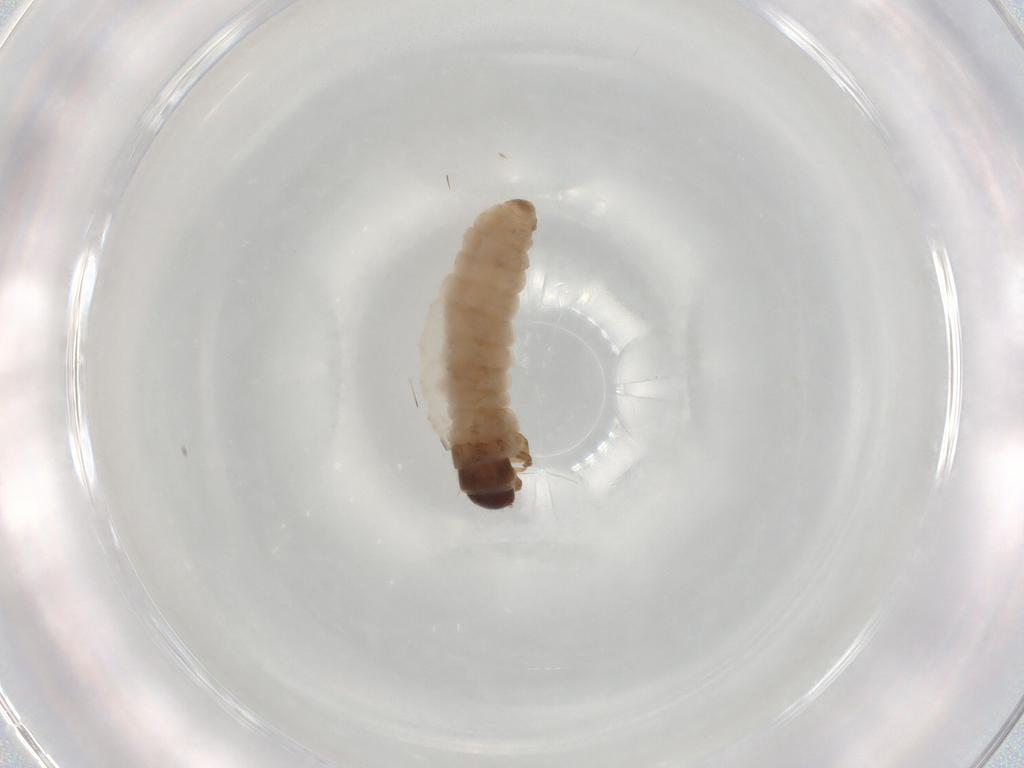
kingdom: Animalia
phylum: Arthropoda
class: Insecta
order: Lepidoptera
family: Psychidae
